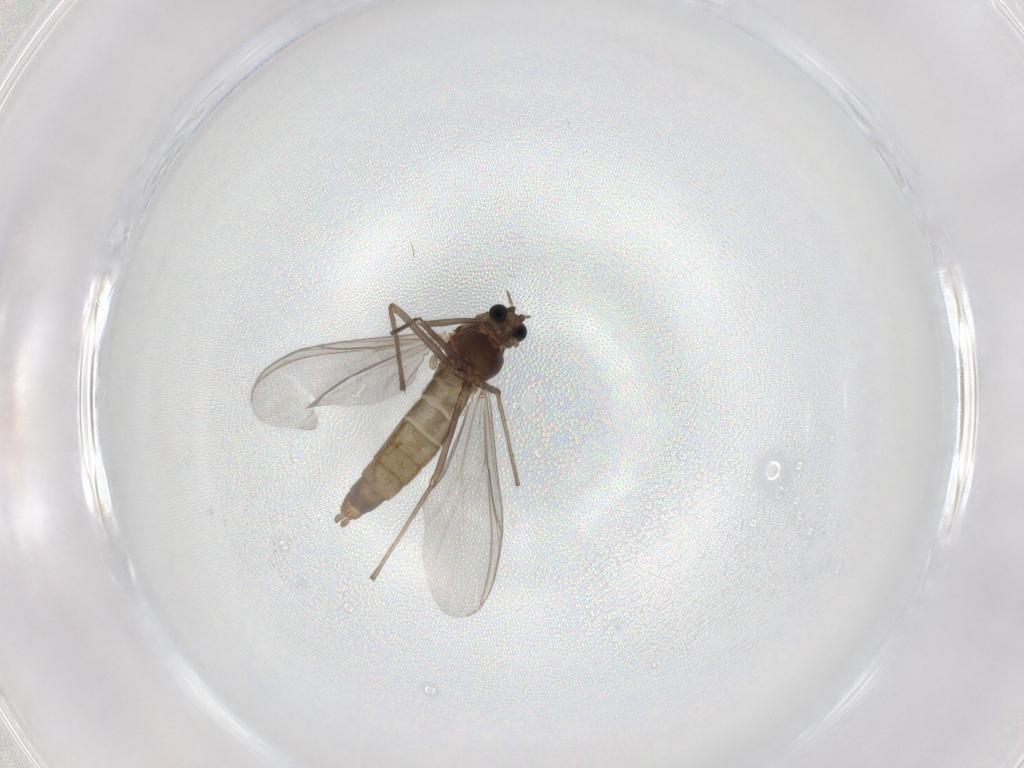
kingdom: Animalia
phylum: Arthropoda
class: Insecta
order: Diptera
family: Chironomidae
